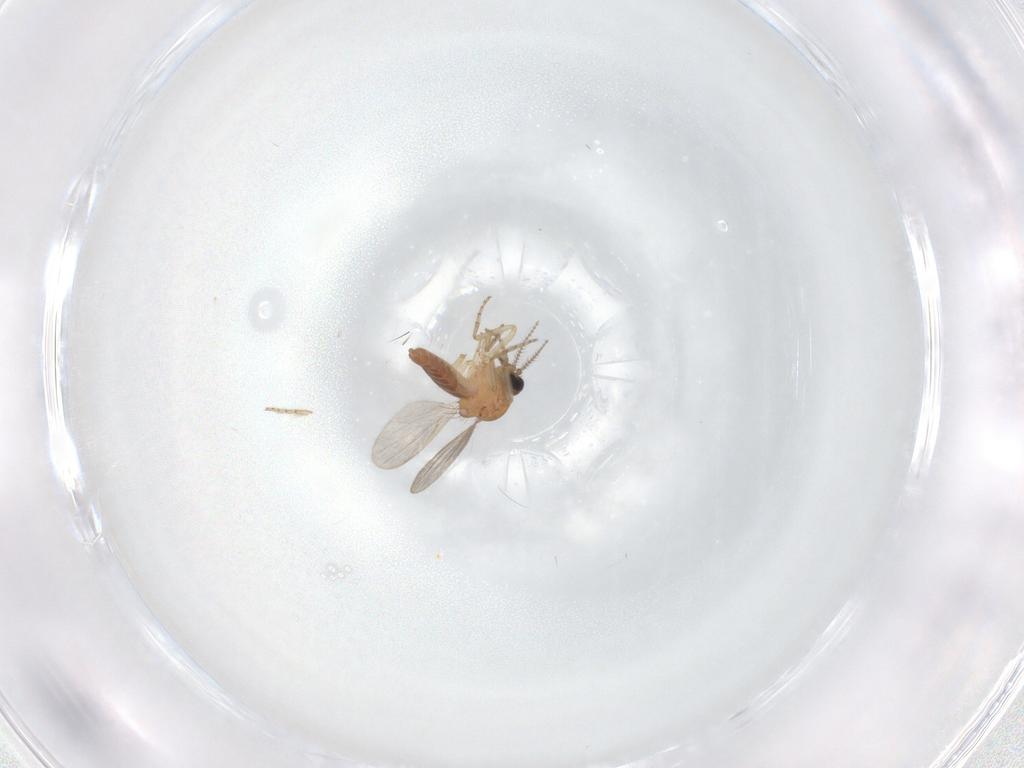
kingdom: Animalia
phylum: Arthropoda
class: Insecta
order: Diptera
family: Ceratopogonidae
